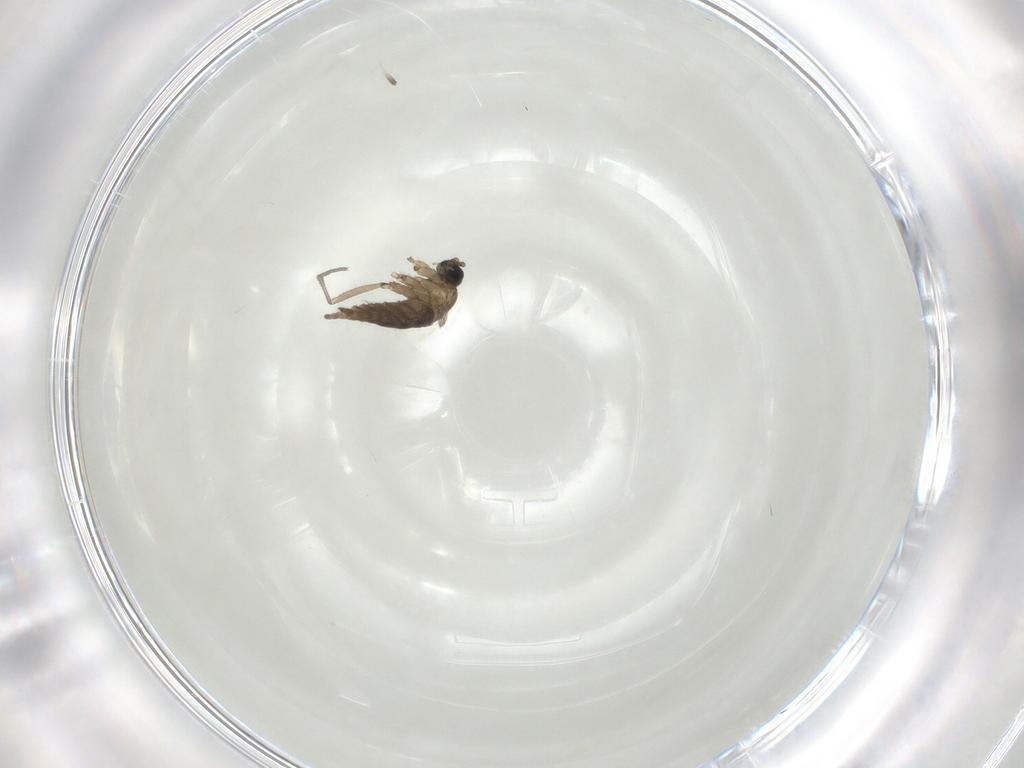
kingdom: Animalia
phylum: Arthropoda
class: Insecta
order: Diptera
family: Sciaridae
